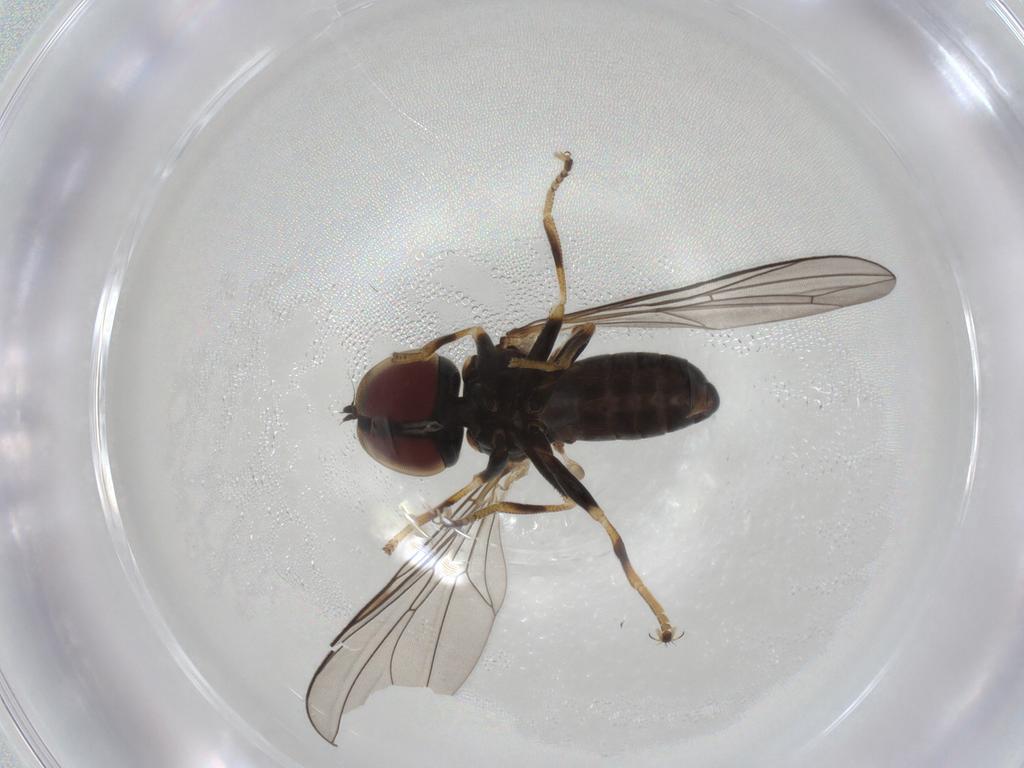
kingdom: Animalia
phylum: Arthropoda
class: Insecta
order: Diptera
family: Pipunculidae
